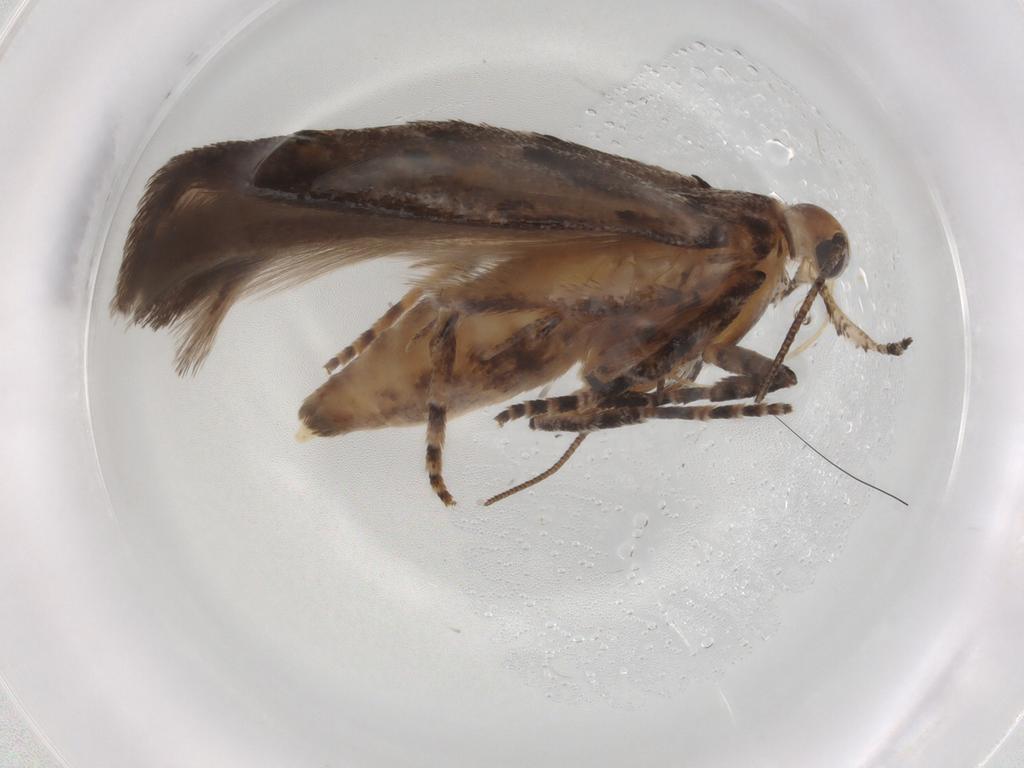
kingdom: Animalia
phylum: Arthropoda
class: Insecta
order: Lepidoptera
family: Gelechiidae
